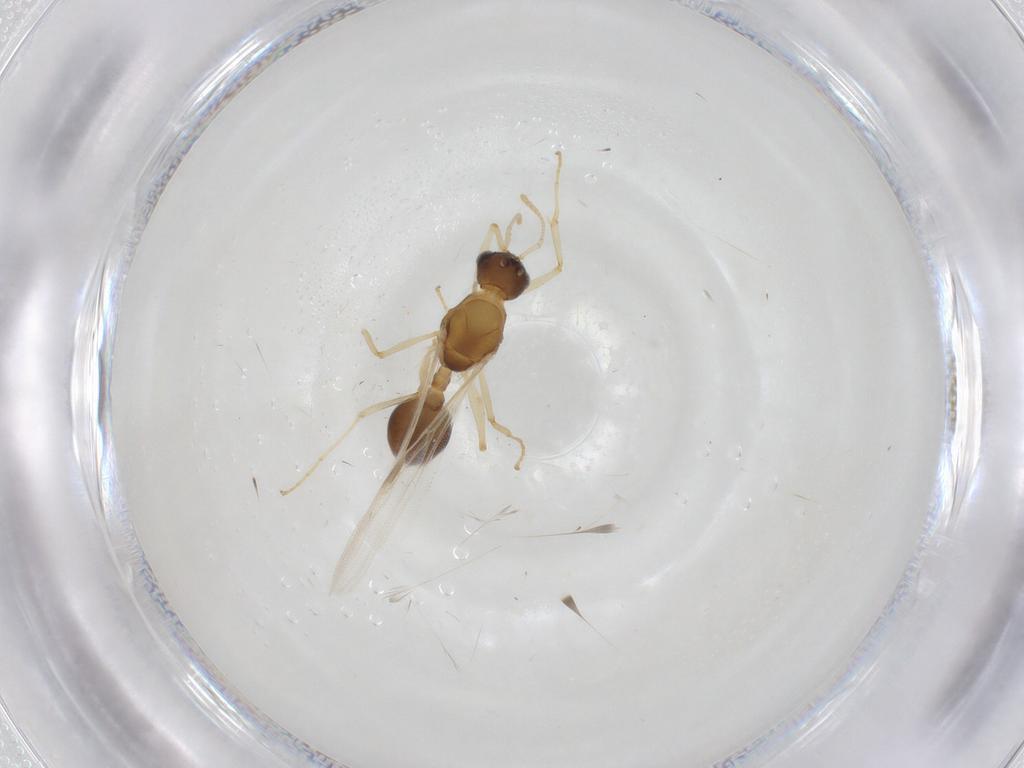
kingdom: Animalia
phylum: Arthropoda
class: Insecta
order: Hymenoptera
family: Formicidae
